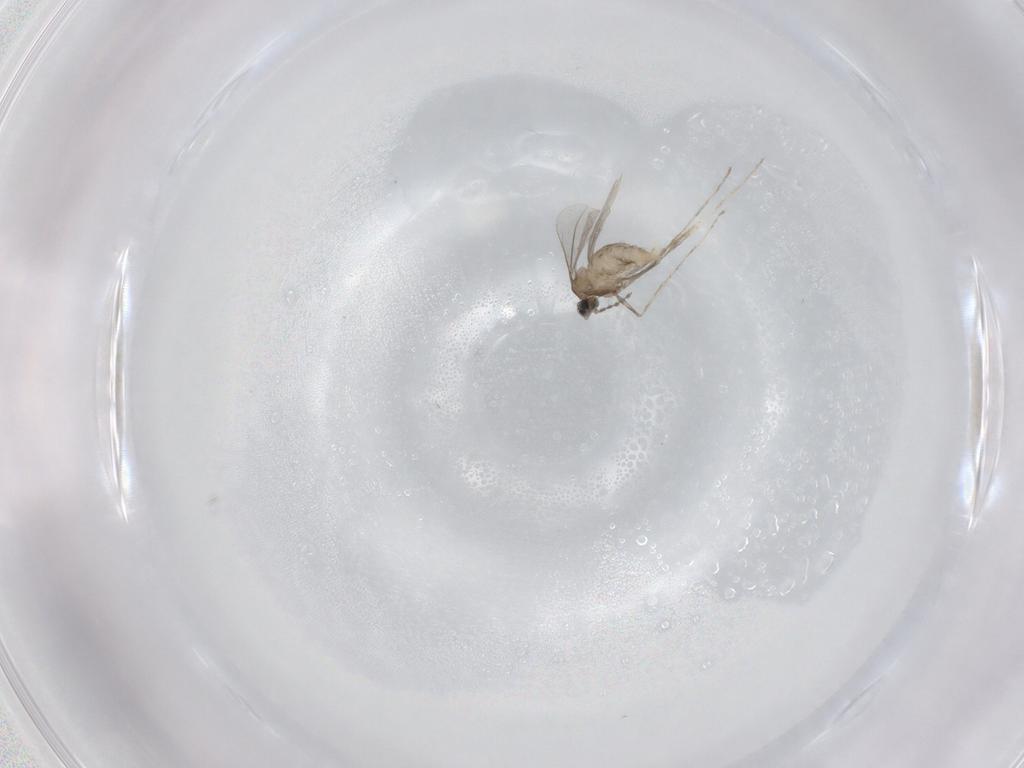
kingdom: Animalia
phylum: Arthropoda
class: Insecta
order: Diptera
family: Cecidomyiidae
